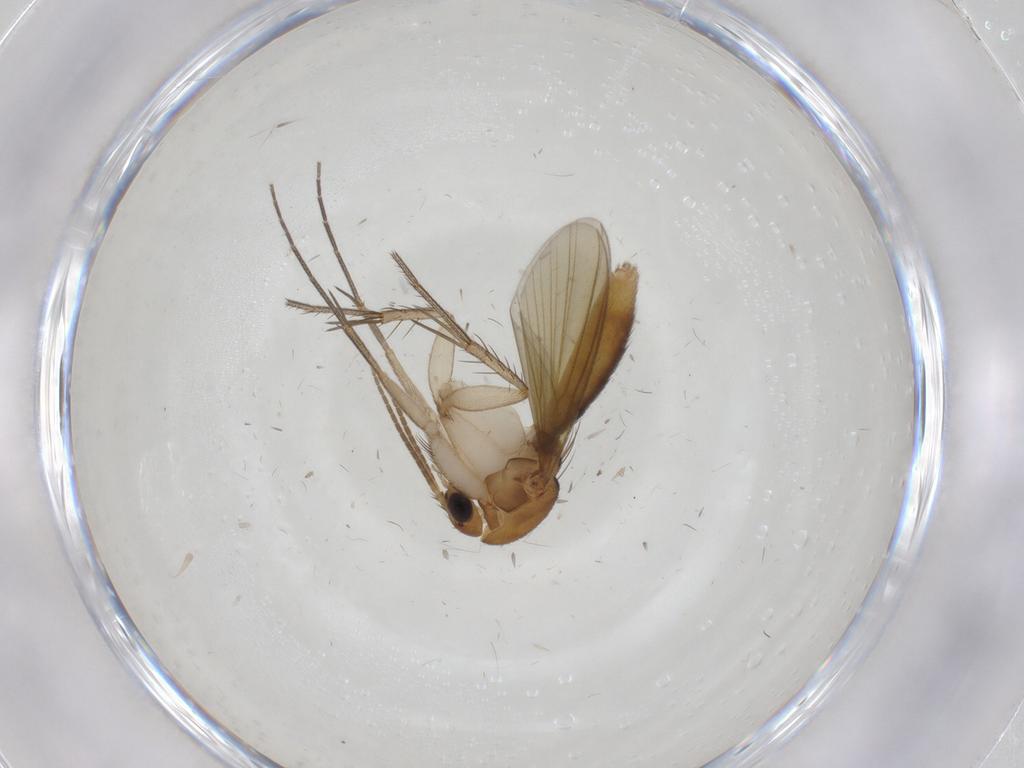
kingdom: Animalia
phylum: Arthropoda
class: Insecta
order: Diptera
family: Mycetophilidae
